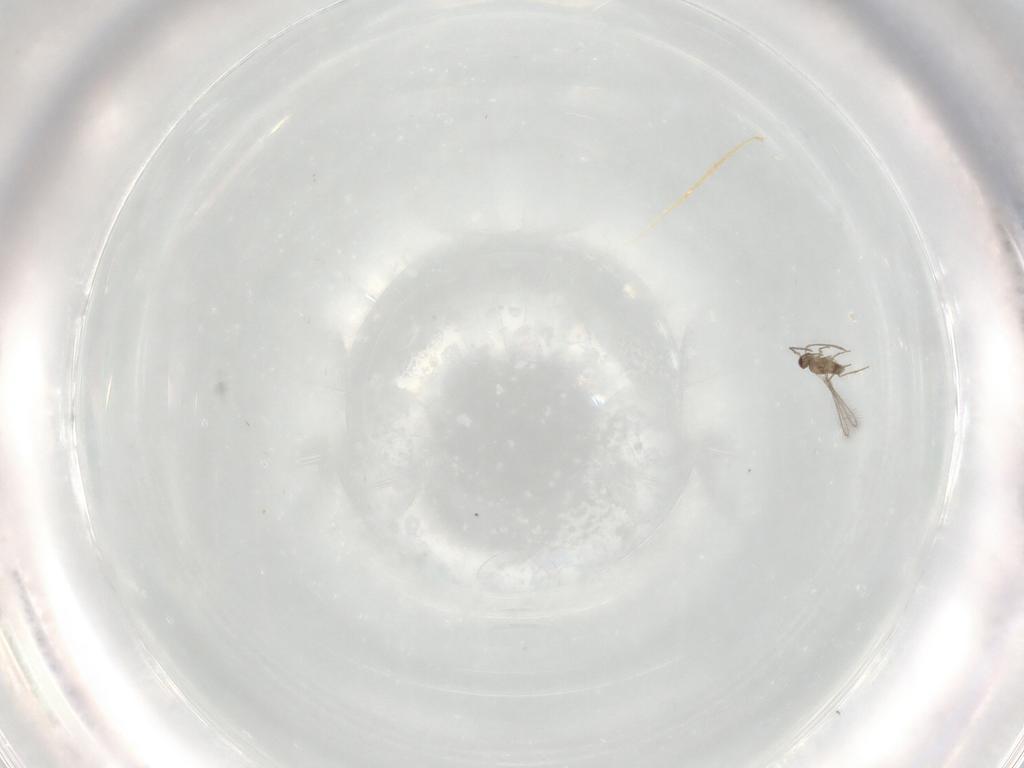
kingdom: Animalia
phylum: Arthropoda
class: Insecta
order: Hymenoptera
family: Mymaridae
